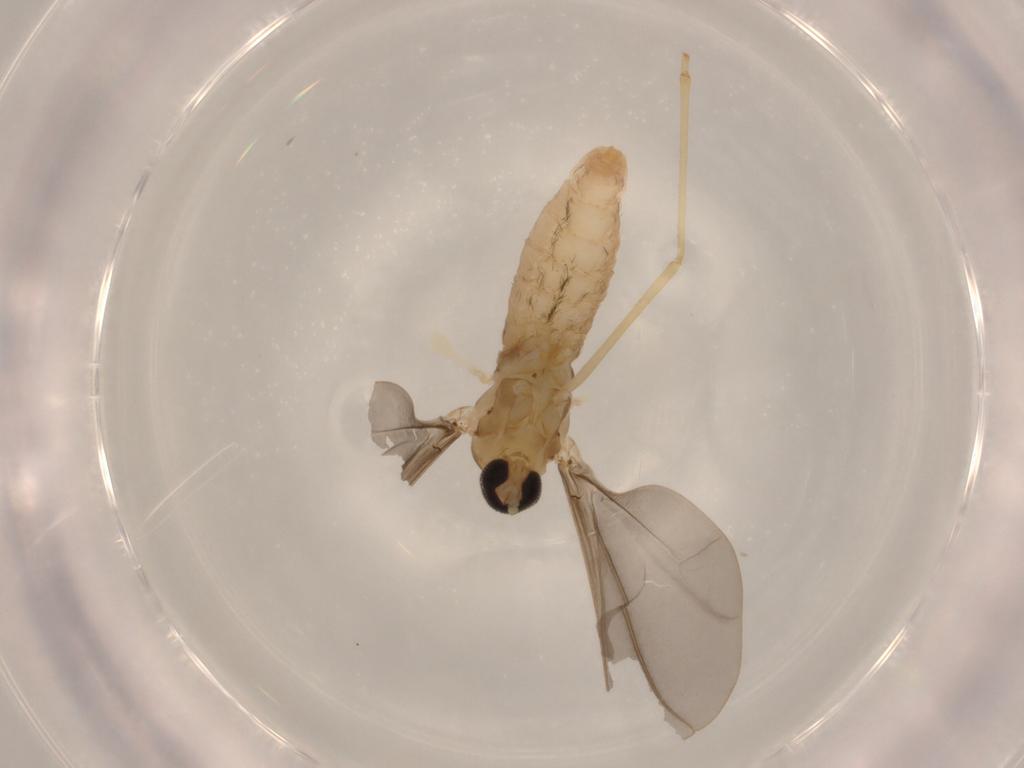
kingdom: Animalia
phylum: Arthropoda
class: Insecta
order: Diptera
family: Cecidomyiidae
